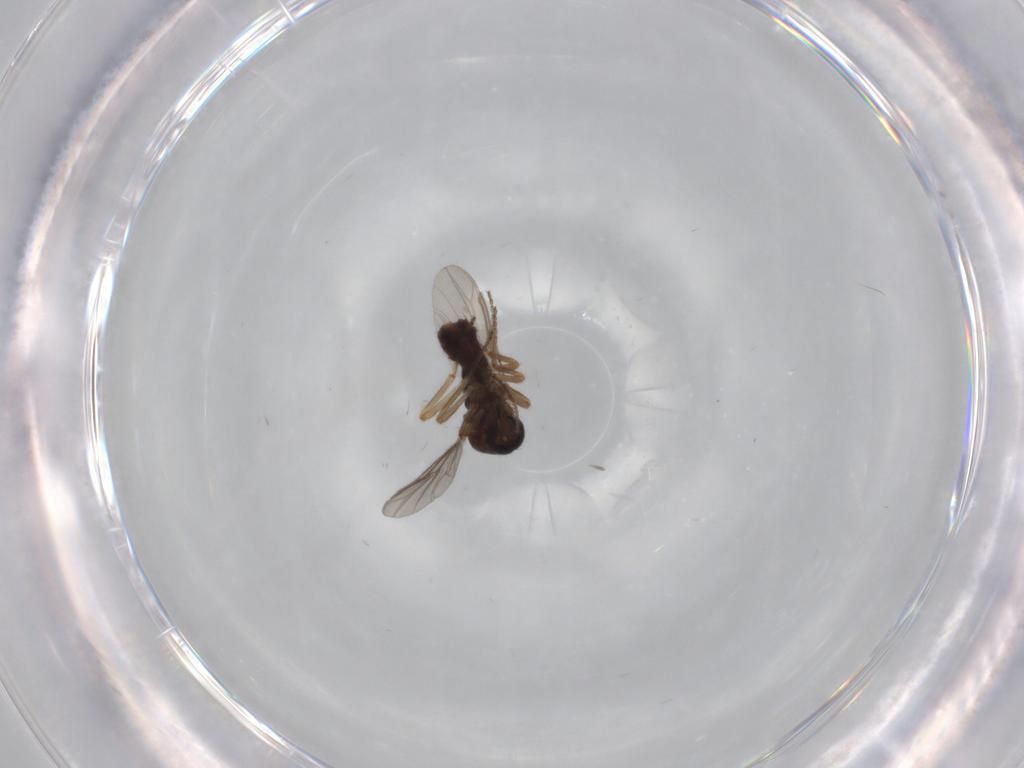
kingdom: Animalia
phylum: Arthropoda
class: Insecta
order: Diptera
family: Ceratopogonidae
